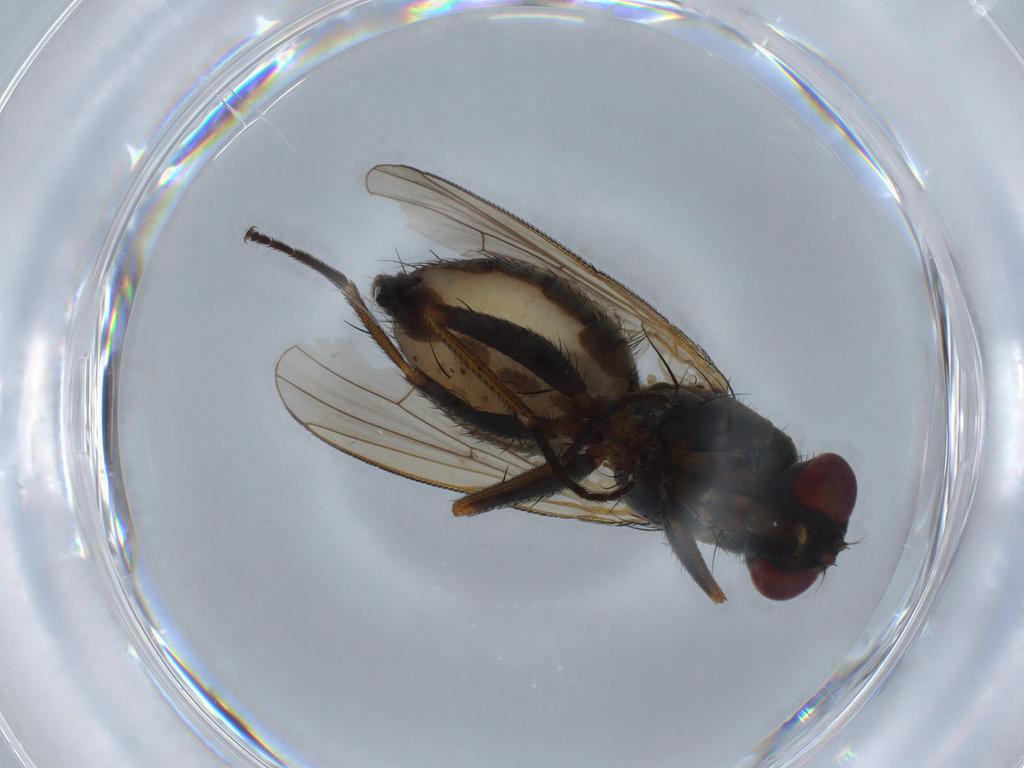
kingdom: Animalia
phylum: Arthropoda
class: Insecta
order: Diptera
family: Muscidae
